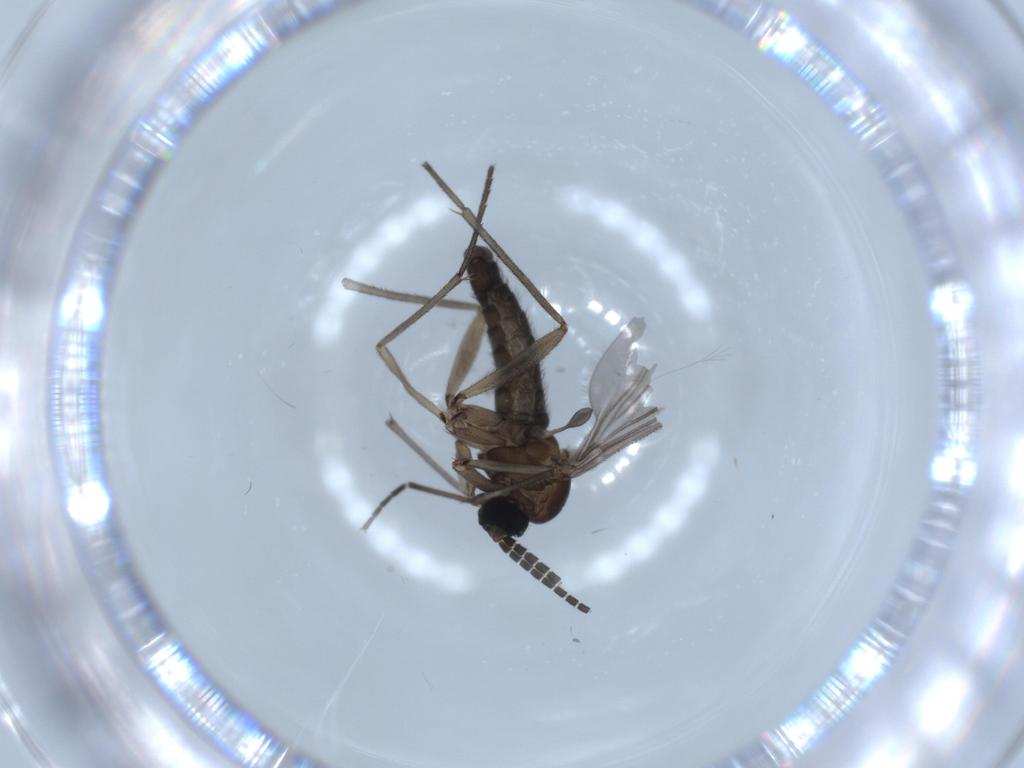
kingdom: Animalia
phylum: Arthropoda
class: Insecta
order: Diptera
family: Sciaridae
